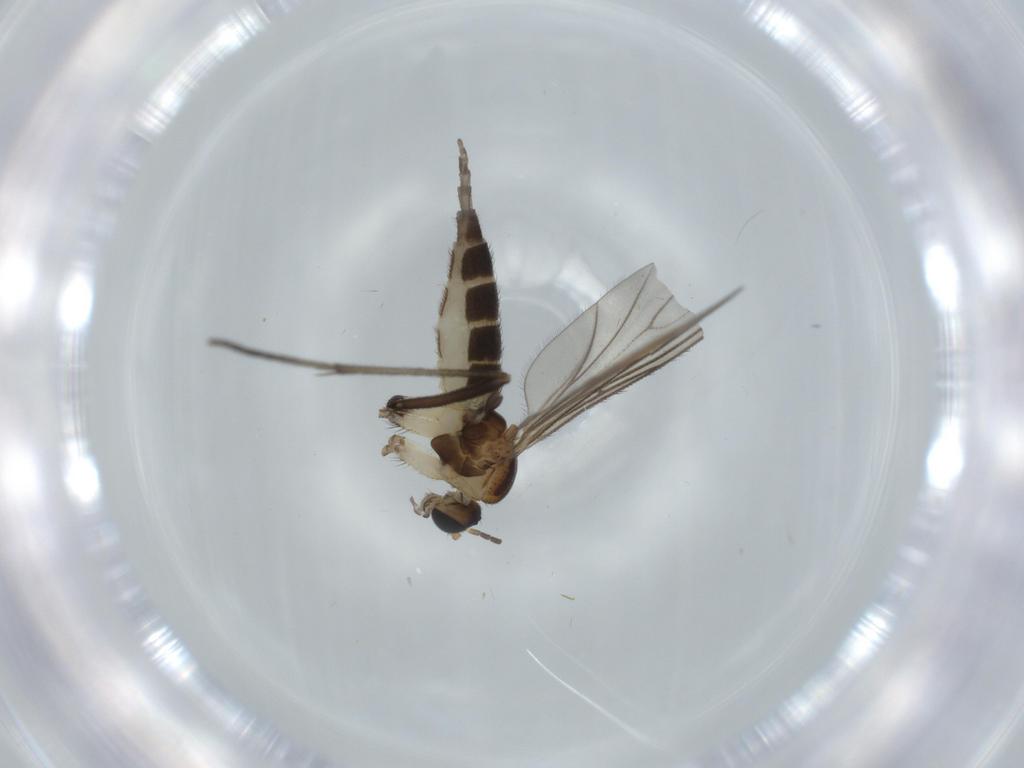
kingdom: Animalia
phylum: Arthropoda
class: Insecta
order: Diptera
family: Sciaridae
